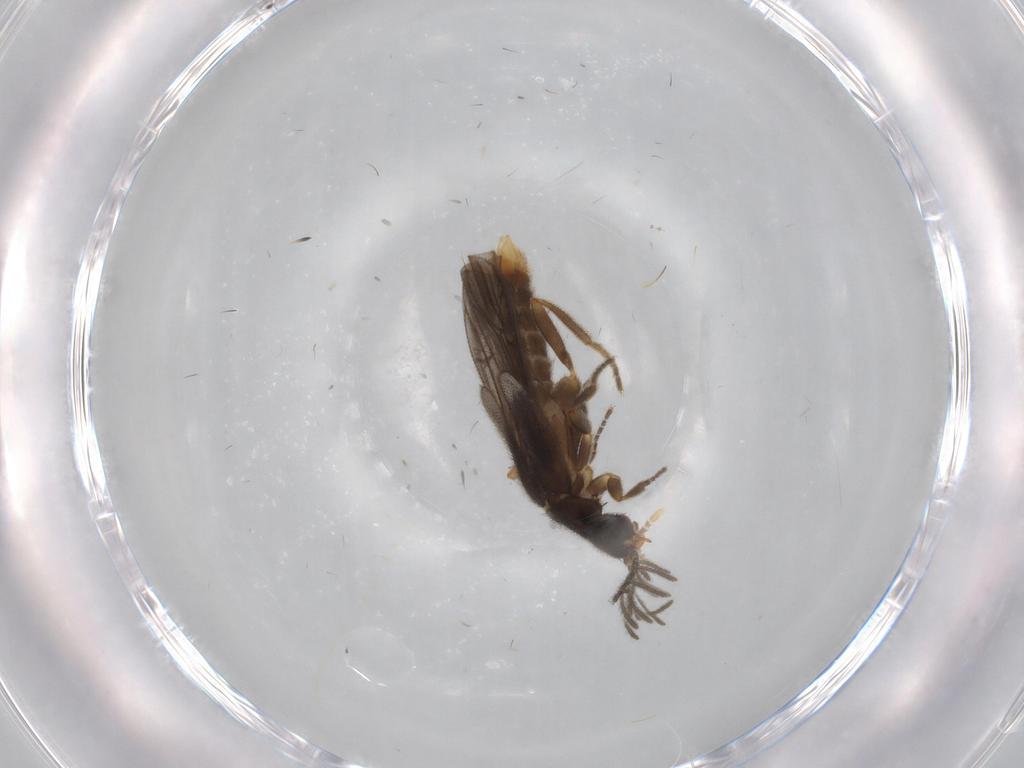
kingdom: Animalia
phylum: Arthropoda
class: Insecta
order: Coleoptera
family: Chrysomelidae
